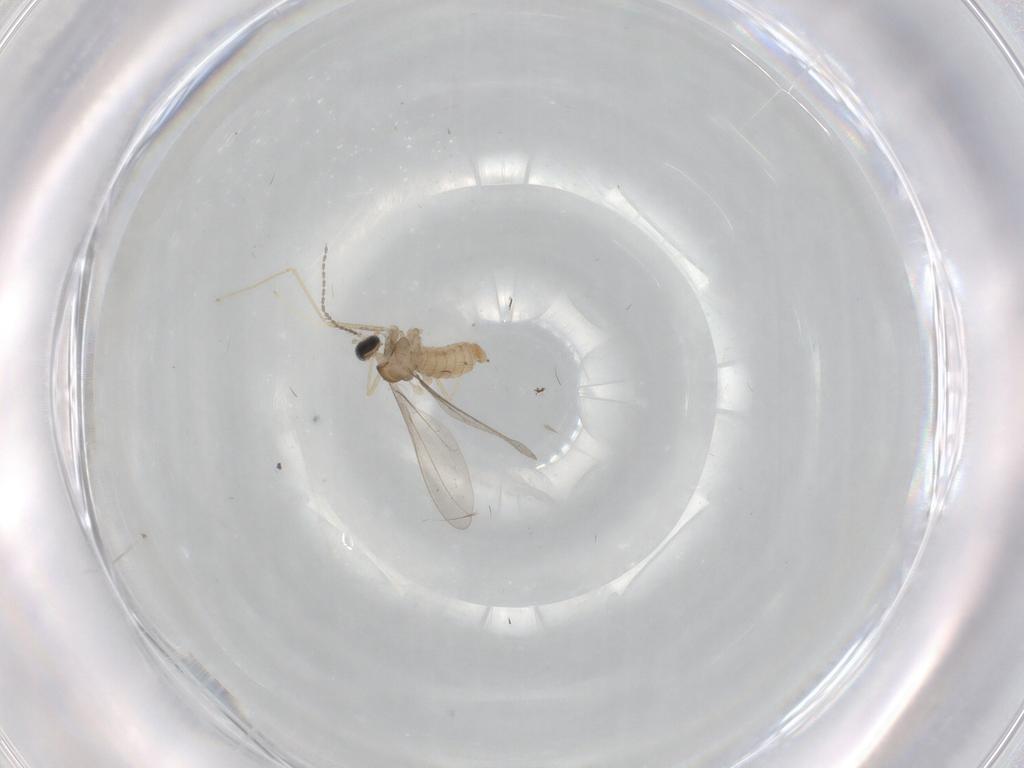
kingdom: Animalia
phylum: Arthropoda
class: Insecta
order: Diptera
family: Cecidomyiidae
